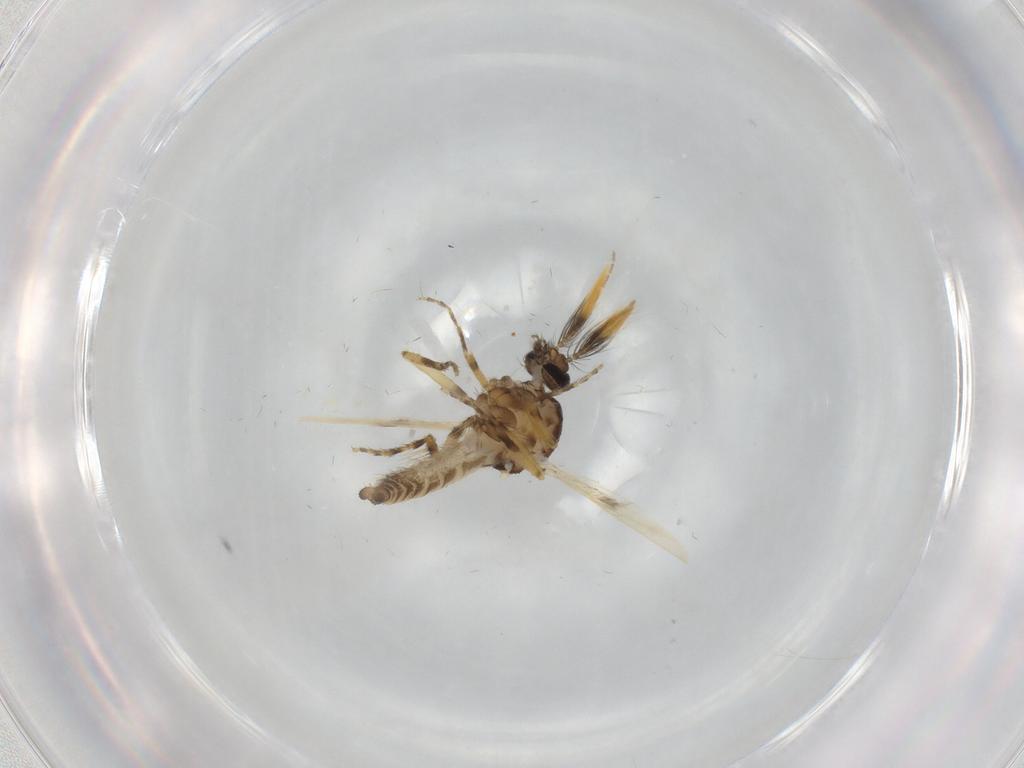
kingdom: Animalia
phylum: Arthropoda
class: Insecta
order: Diptera
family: Ceratopogonidae
